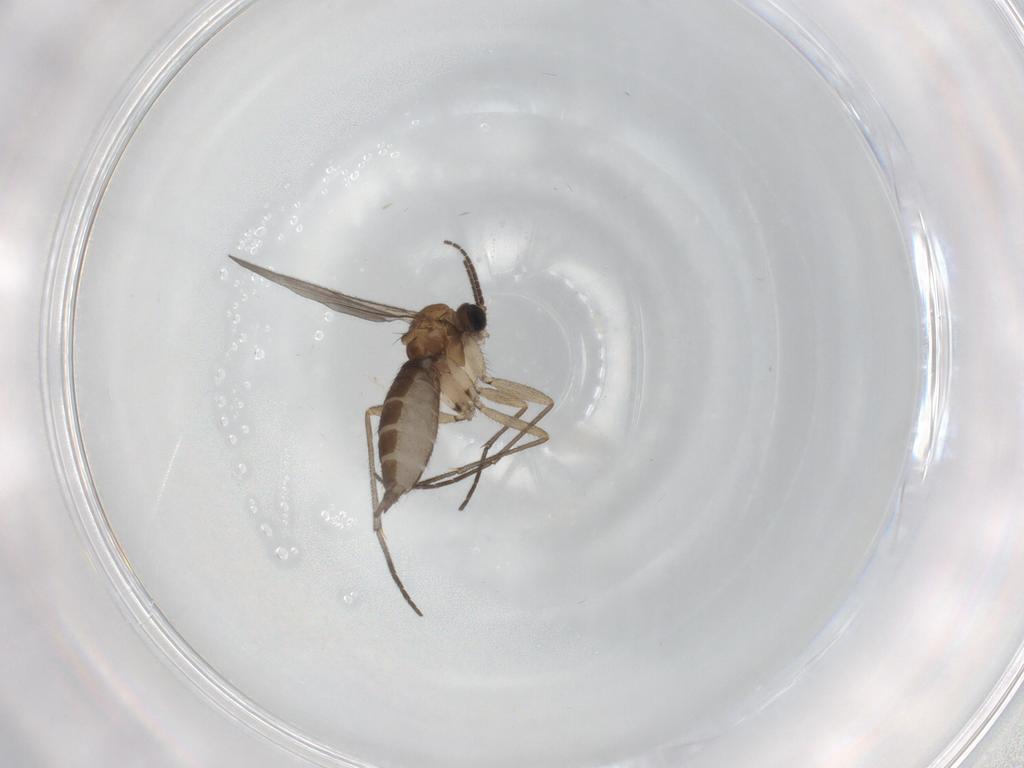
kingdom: Animalia
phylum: Arthropoda
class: Insecta
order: Diptera
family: Sciaridae
